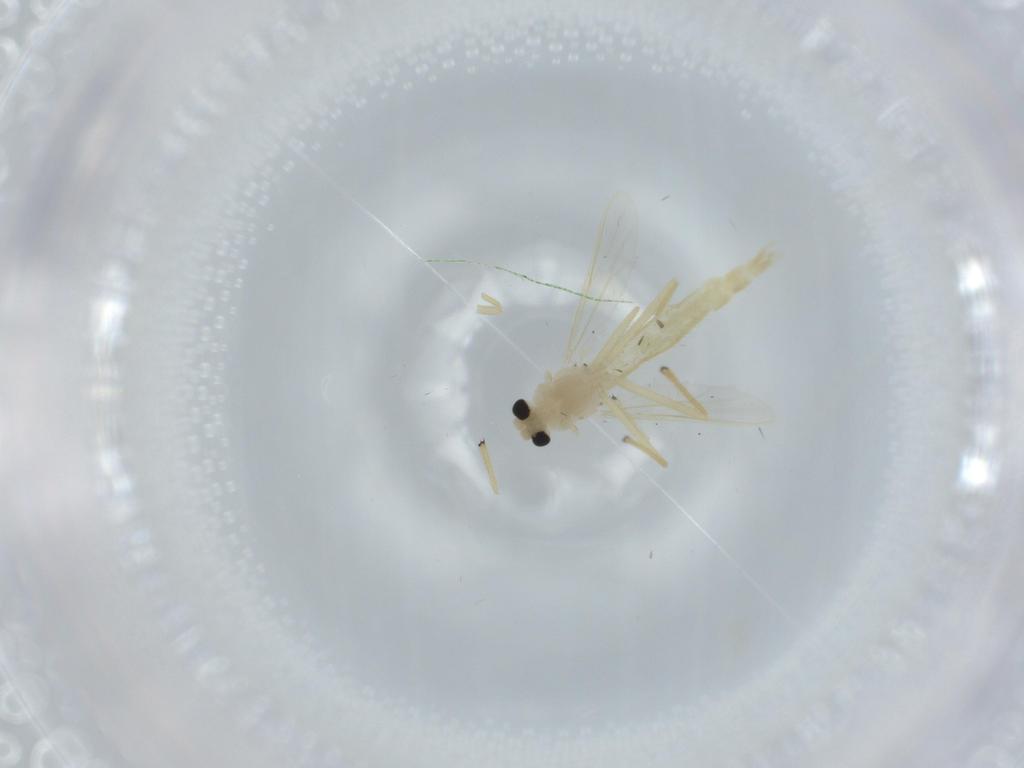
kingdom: Animalia
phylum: Arthropoda
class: Insecta
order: Diptera
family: Chironomidae
